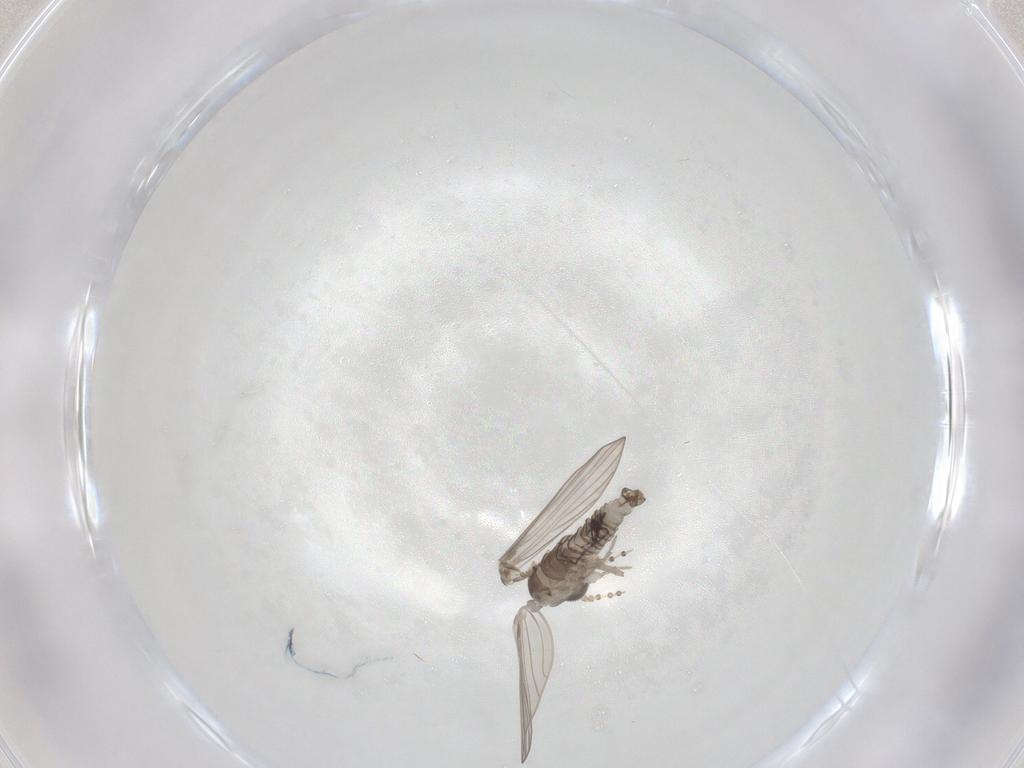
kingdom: Animalia
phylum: Arthropoda
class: Insecta
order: Diptera
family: Psychodidae
